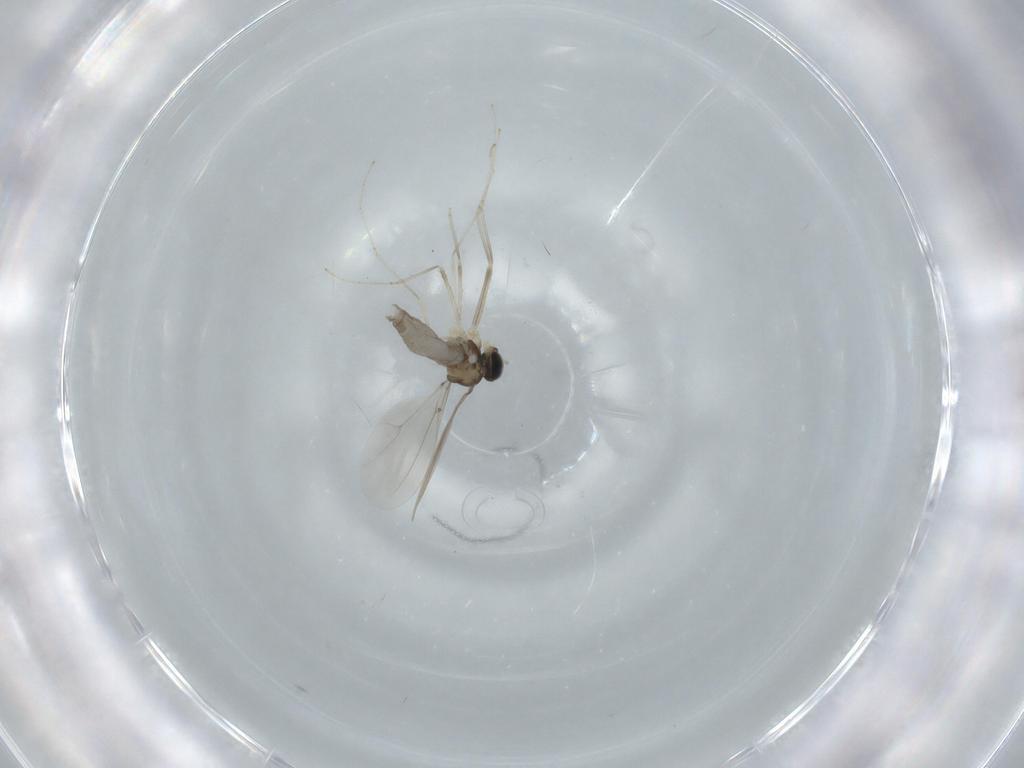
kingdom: Animalia
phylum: Arthropoda
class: Insecta
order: Diptera
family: Cecidomyiidae
